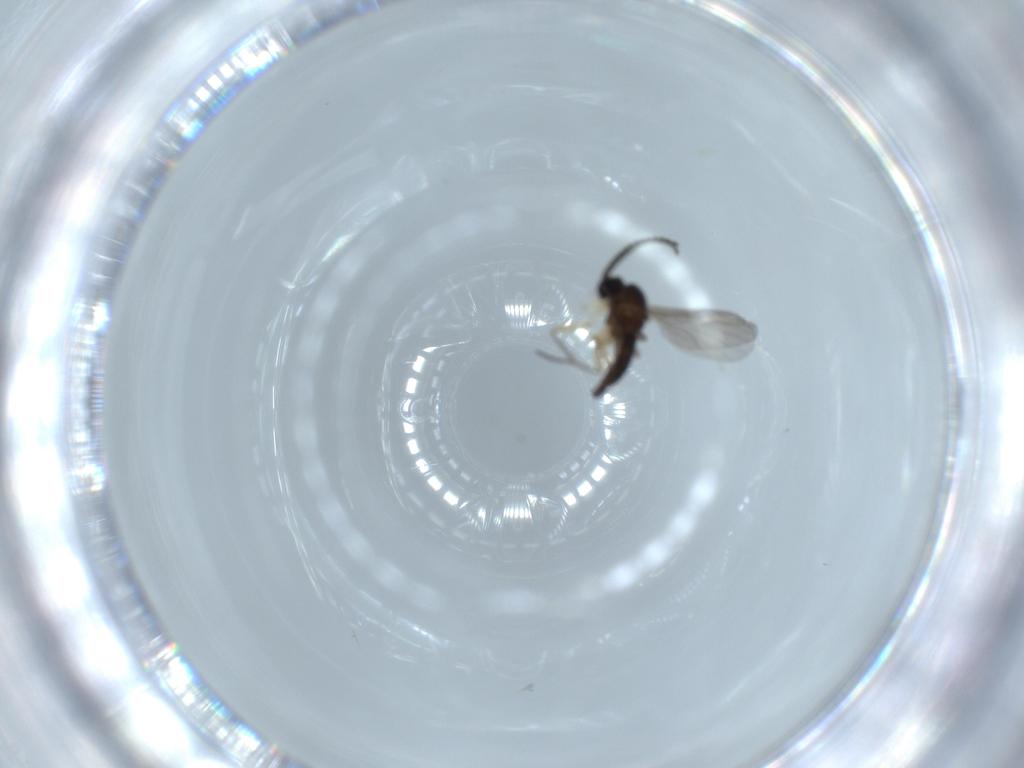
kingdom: Animalia
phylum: Arthropoda
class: Insecta
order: Diptera
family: Sciaridae
